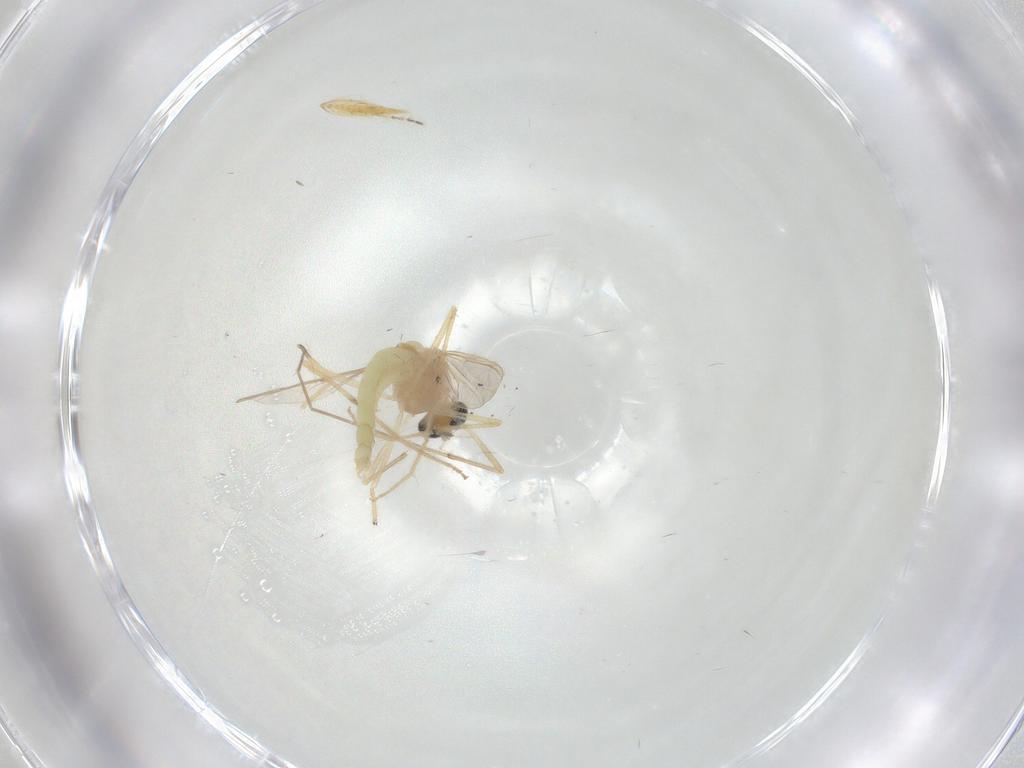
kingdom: Animalia
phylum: Arthropoda
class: Insecta
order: Diptera
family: Chironomidae
